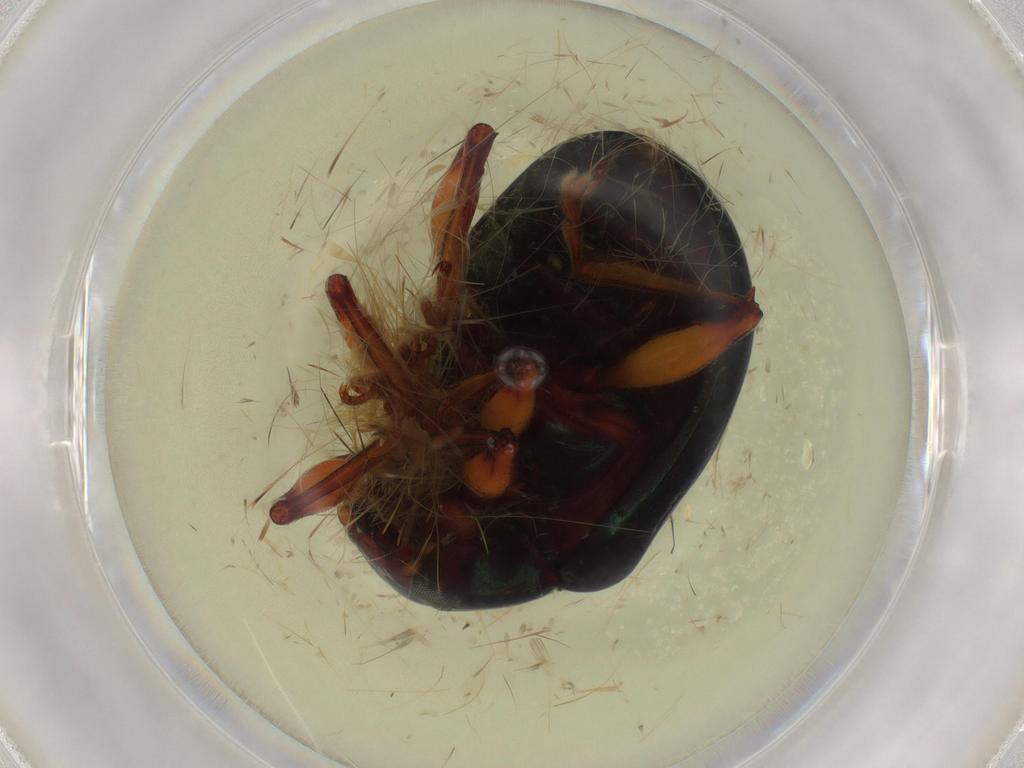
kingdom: Animalia
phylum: Arthropoda
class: Insecta
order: Coleoptera
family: Chrysomelidae
